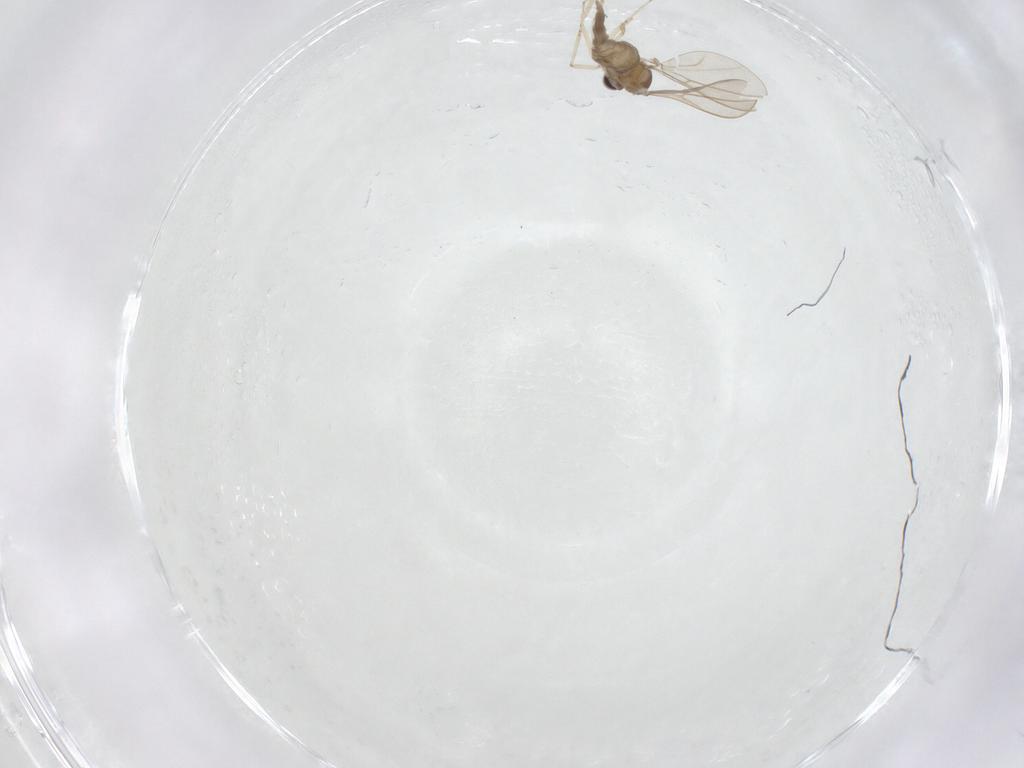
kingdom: Animalia
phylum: Arthropoda
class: Insecta
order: Diptera
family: Cecidomyiidae
